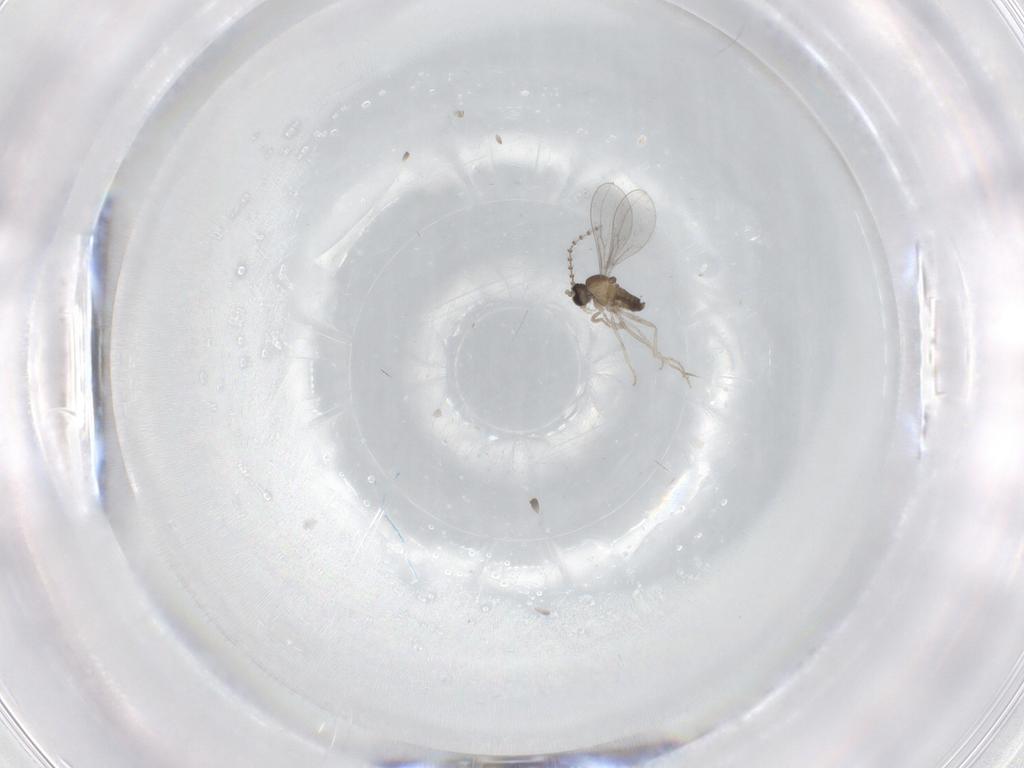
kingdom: Animalia
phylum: Arthropoda
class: Insecta
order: Diptera
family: Cecidomyiidae
